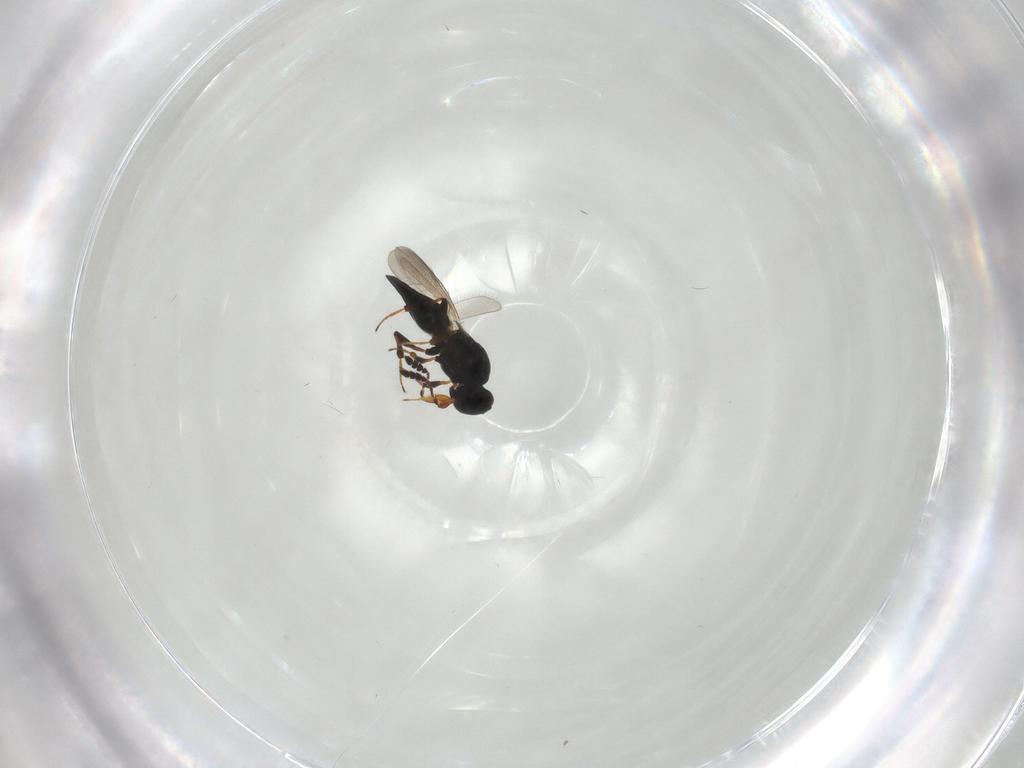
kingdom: Animalia
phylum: Arthropoda
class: Insecta
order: Hymenoptera
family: Platygastridae
